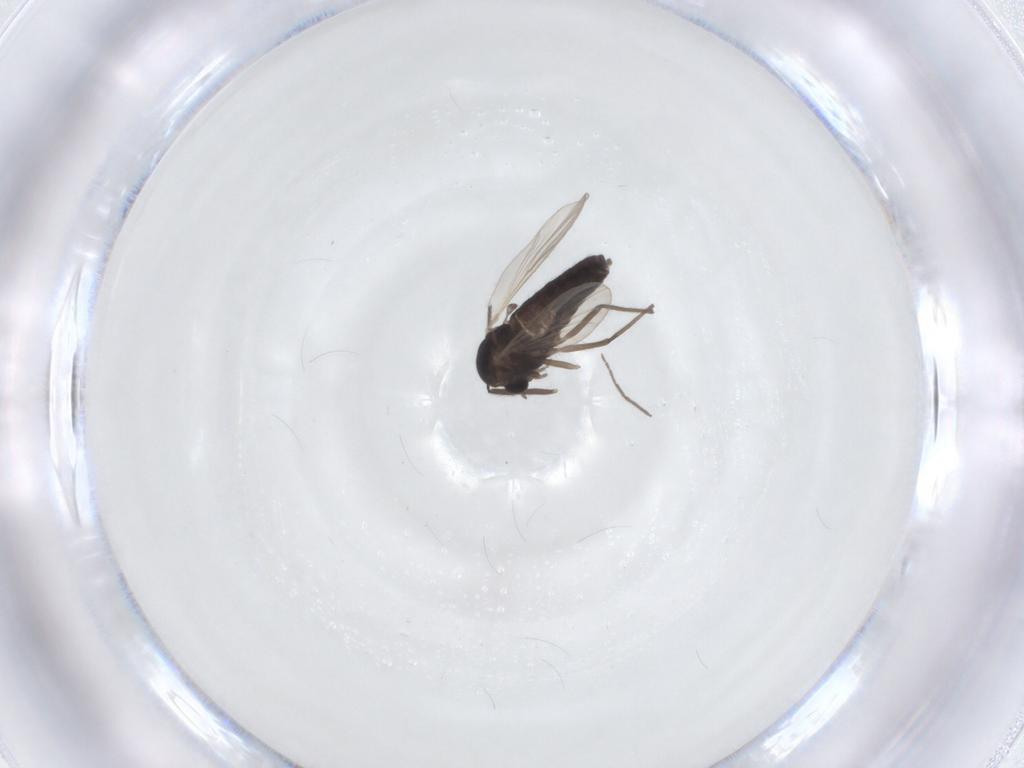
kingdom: Animalia
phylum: Arthropoda
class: Insecta
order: Diptera
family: Chironomidae
